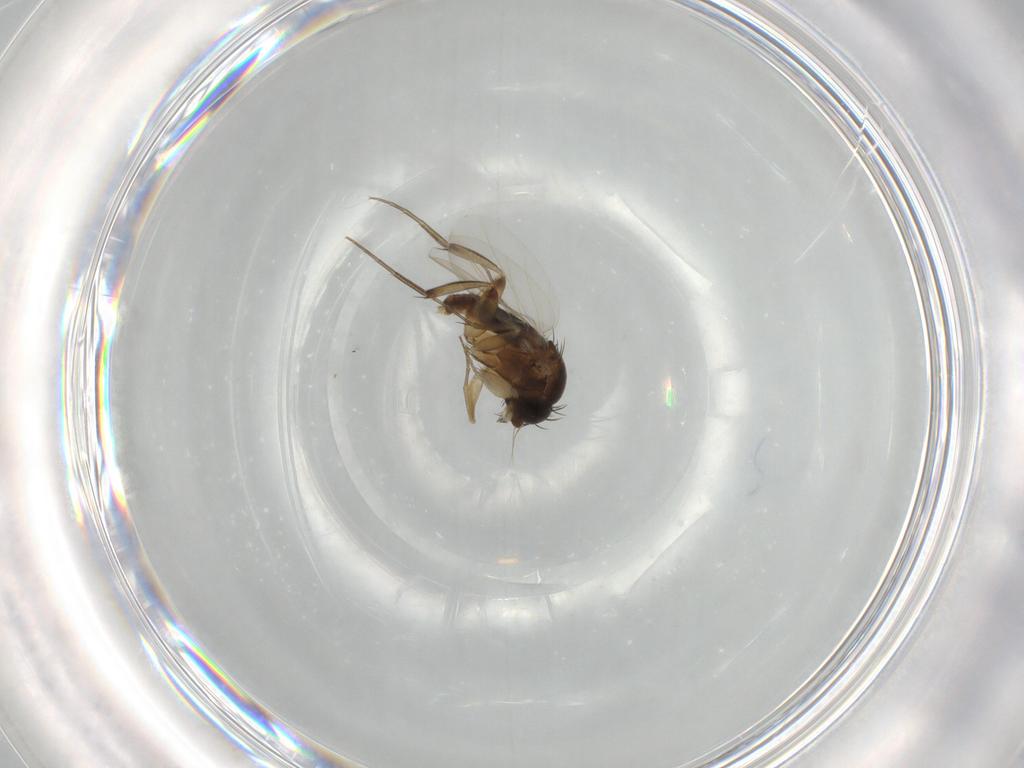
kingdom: Animalia
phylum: Arthropoda
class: Insecta
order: Diptera
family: Phoridae
